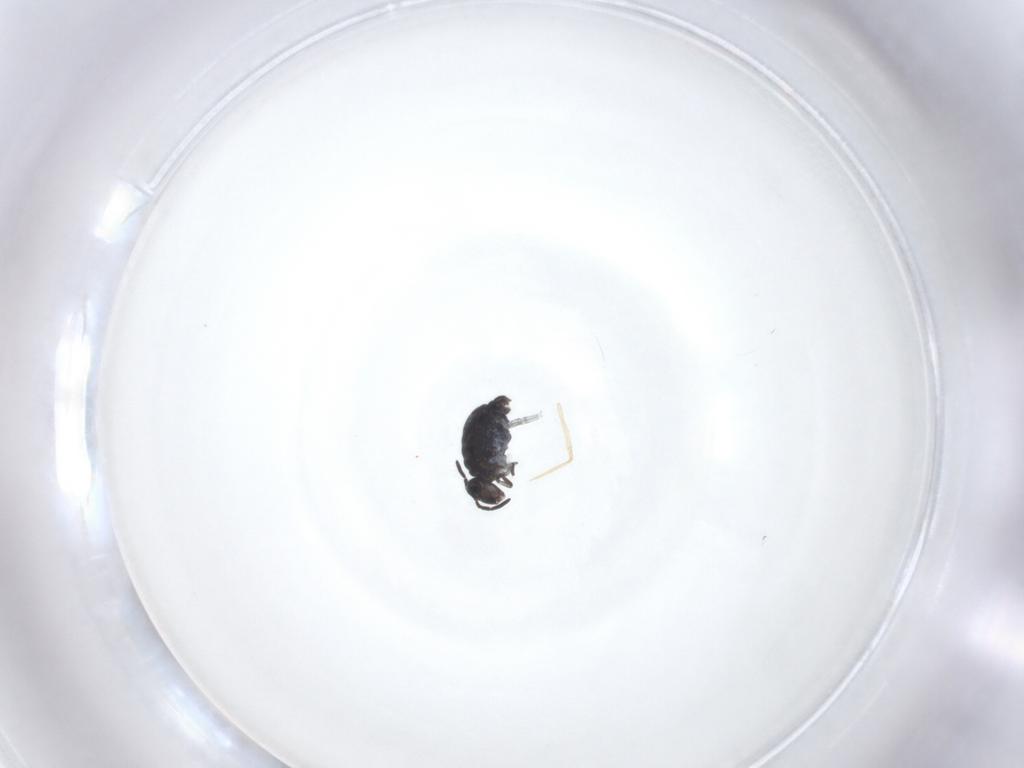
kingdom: Animalia
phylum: Arthropoda
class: Collembola
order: Symphypleona
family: Katiannidae
